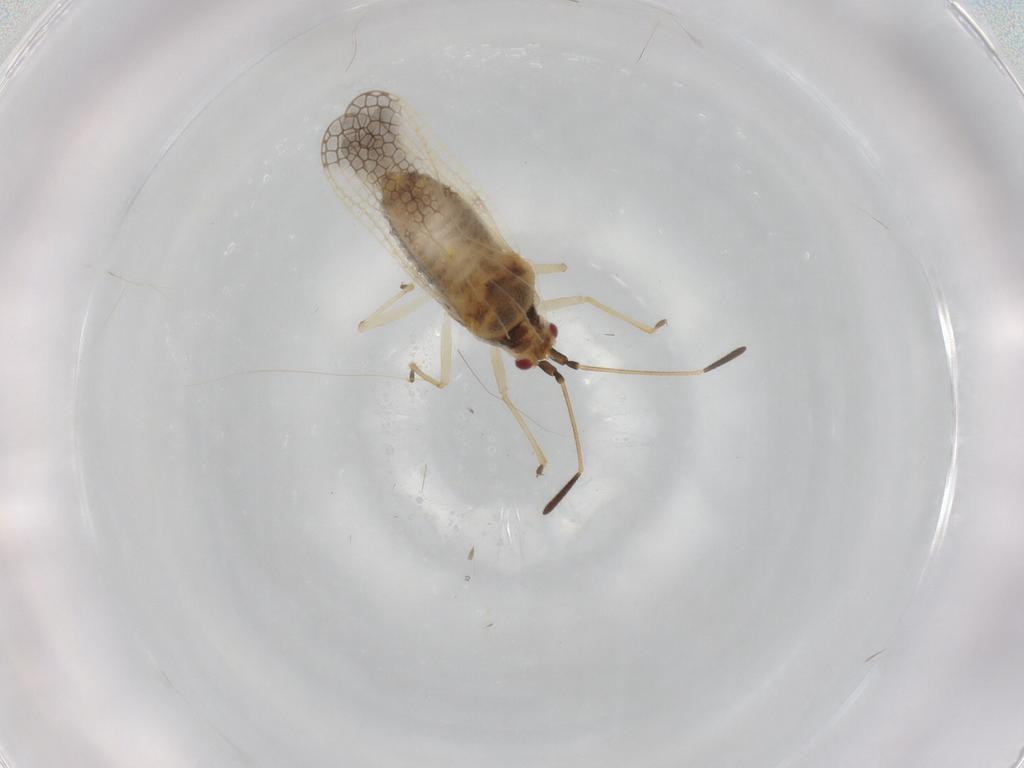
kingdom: Animalia
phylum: Arthropoda
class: Insecta
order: Hemiptera
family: Tingidae
